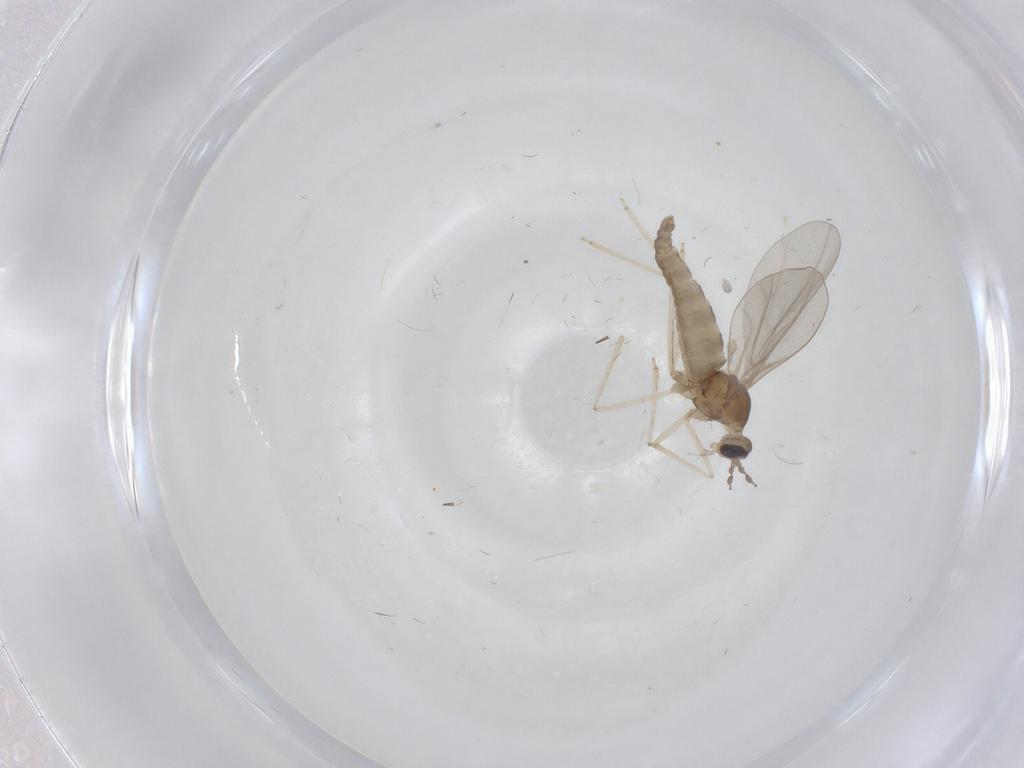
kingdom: Animalia
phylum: Arthropoda
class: Insecta
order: Diptera
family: Cecidomyiidae
